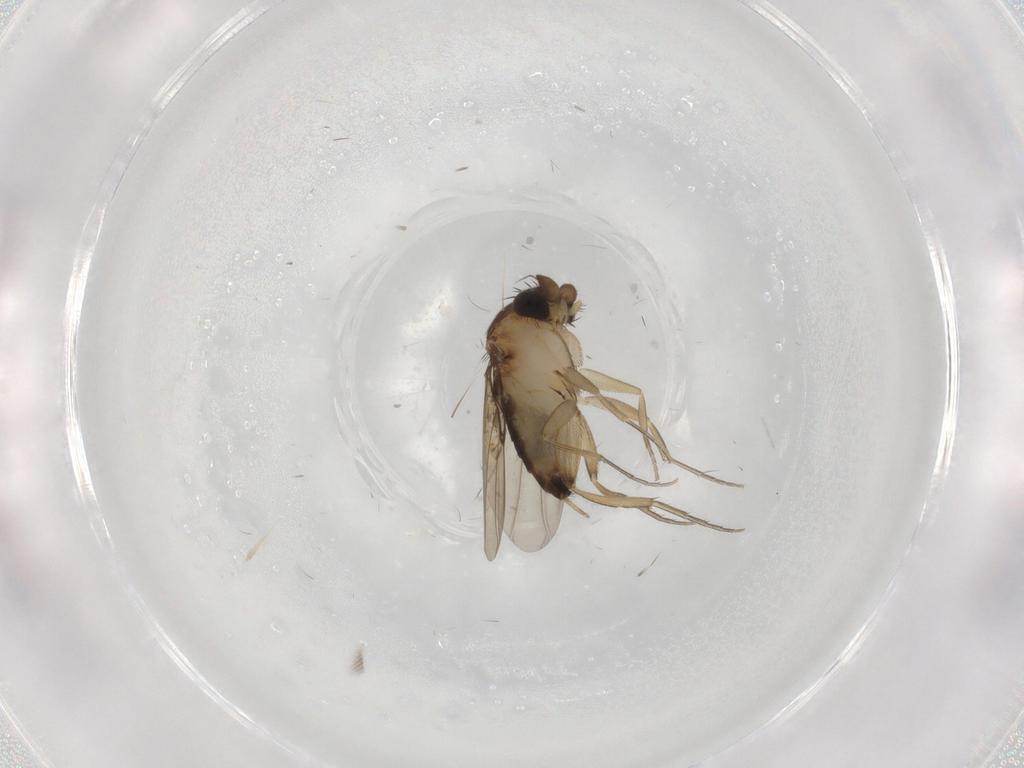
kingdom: Animalia
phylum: Arthropoda
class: Insecta
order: Diptera
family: Phoridae
